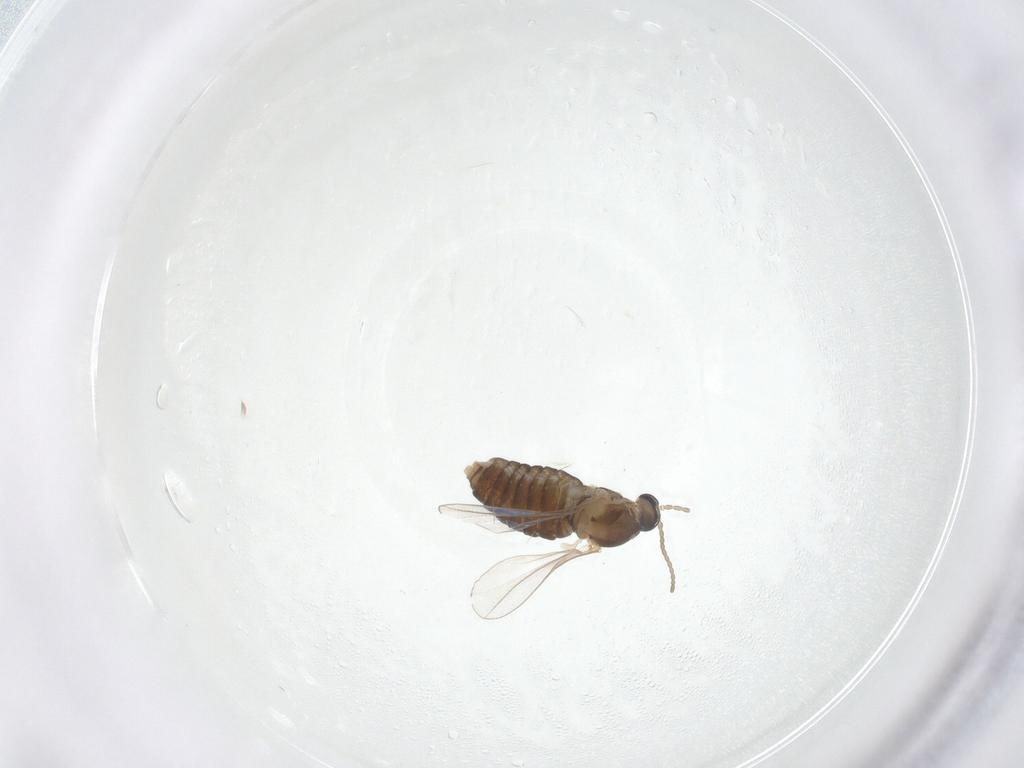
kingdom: Animalia
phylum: Arthropoda
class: Insecta
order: Diptera
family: Cecidomyiidae
